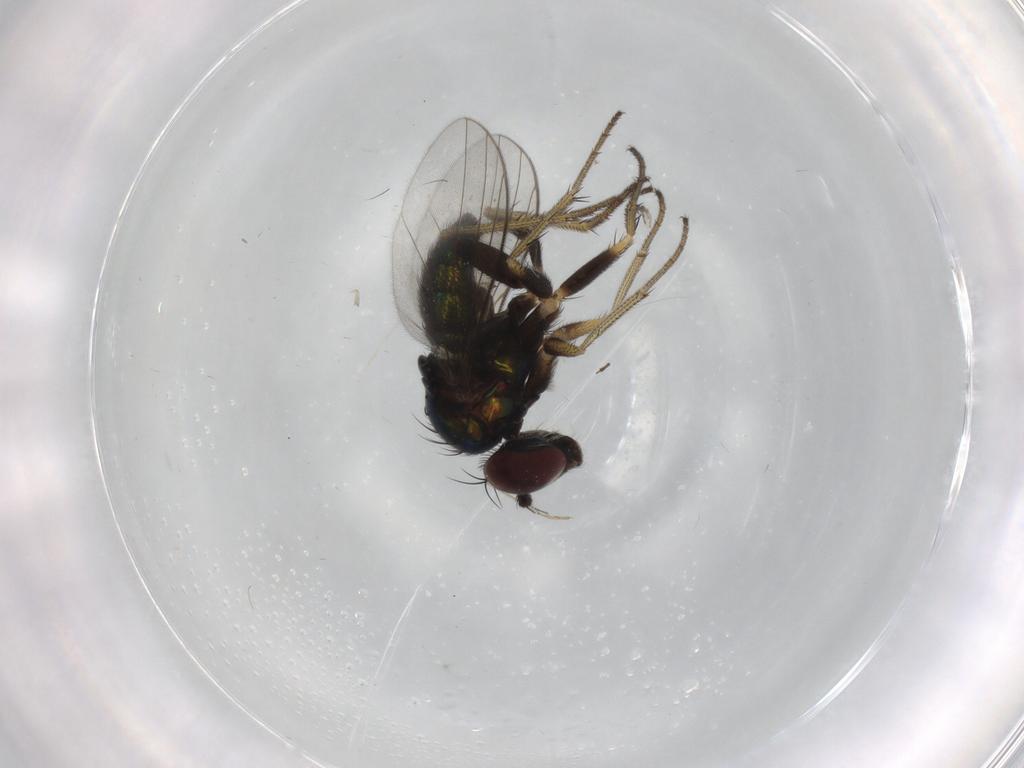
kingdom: Animalia
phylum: Arthropoda
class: Insecta
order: Diptera
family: Dolichopodidae
